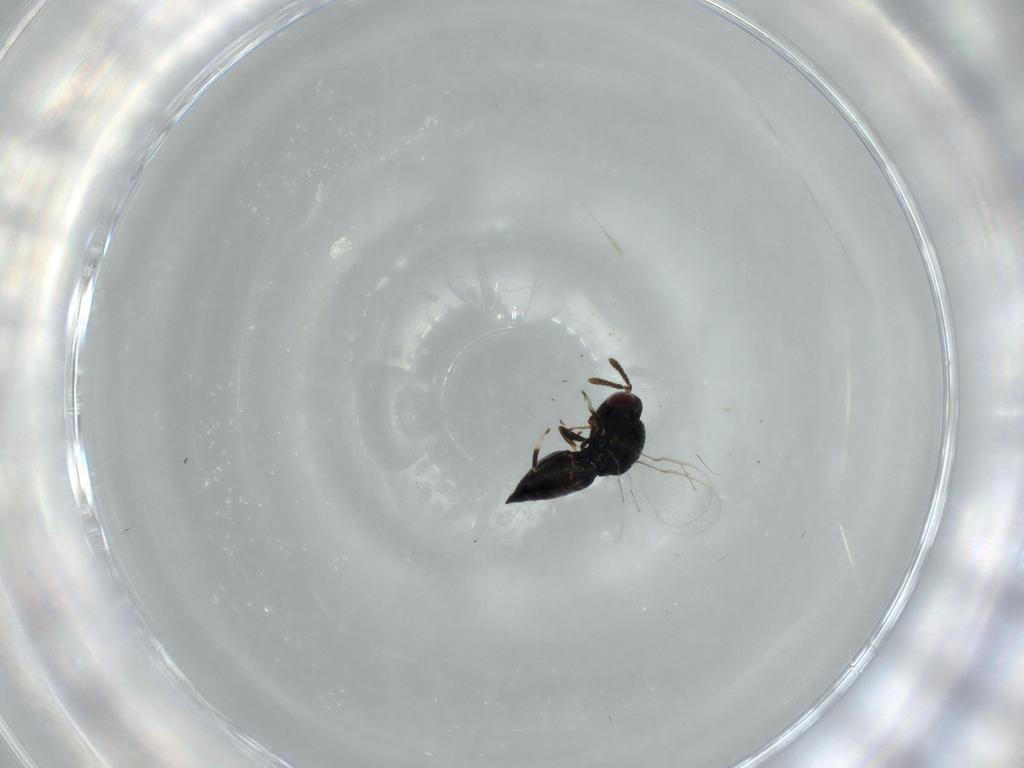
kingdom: Animalia
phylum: Arthropoda
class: Insecta
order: Hymenoptera
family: Pteromalidae
